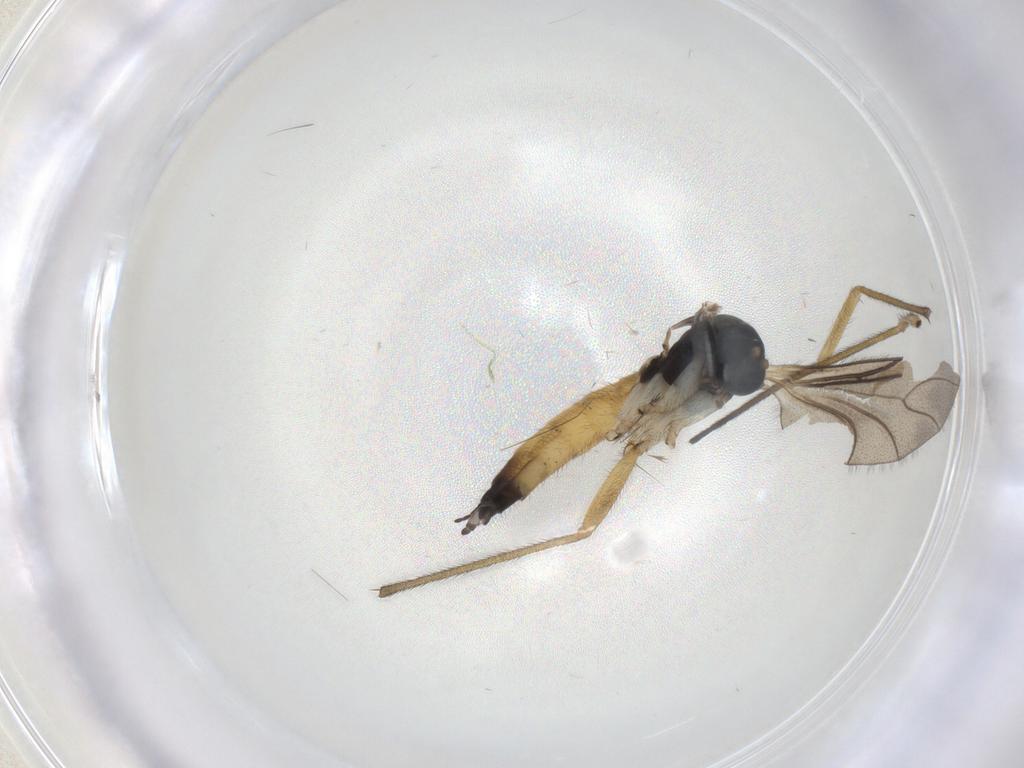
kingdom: Animalia
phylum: Arthropoda
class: Insecta
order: Diptera
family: Sciaridae
